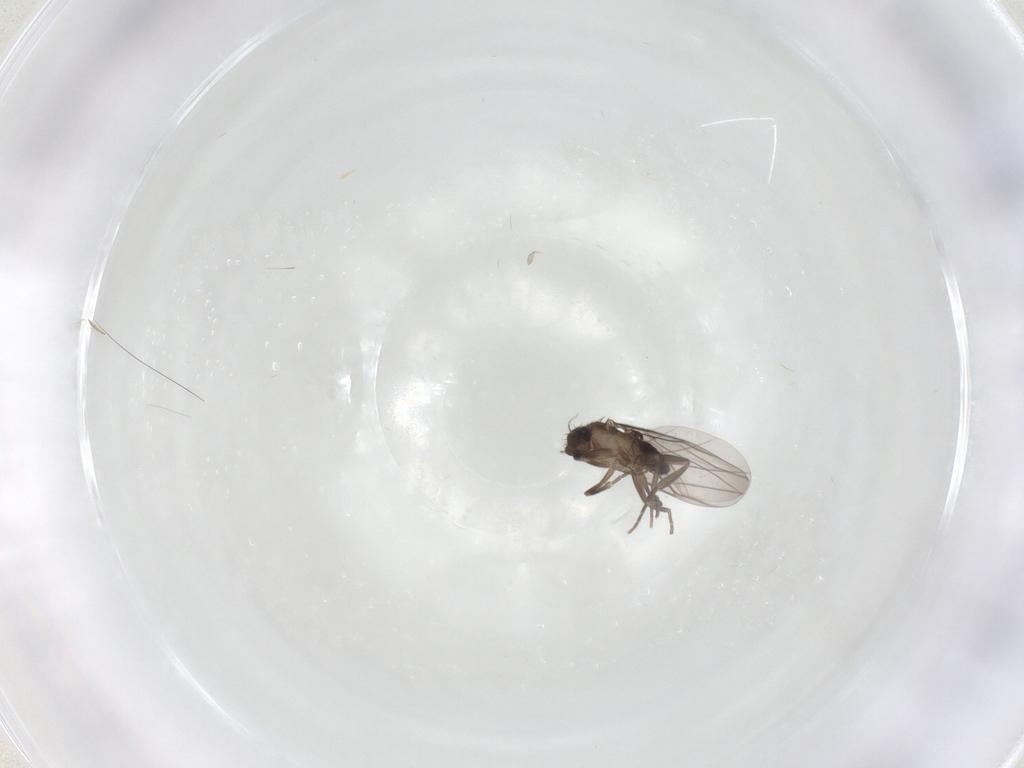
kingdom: Animalia
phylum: Arthropoda
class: Insecta
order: Diptera
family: Phoridae
